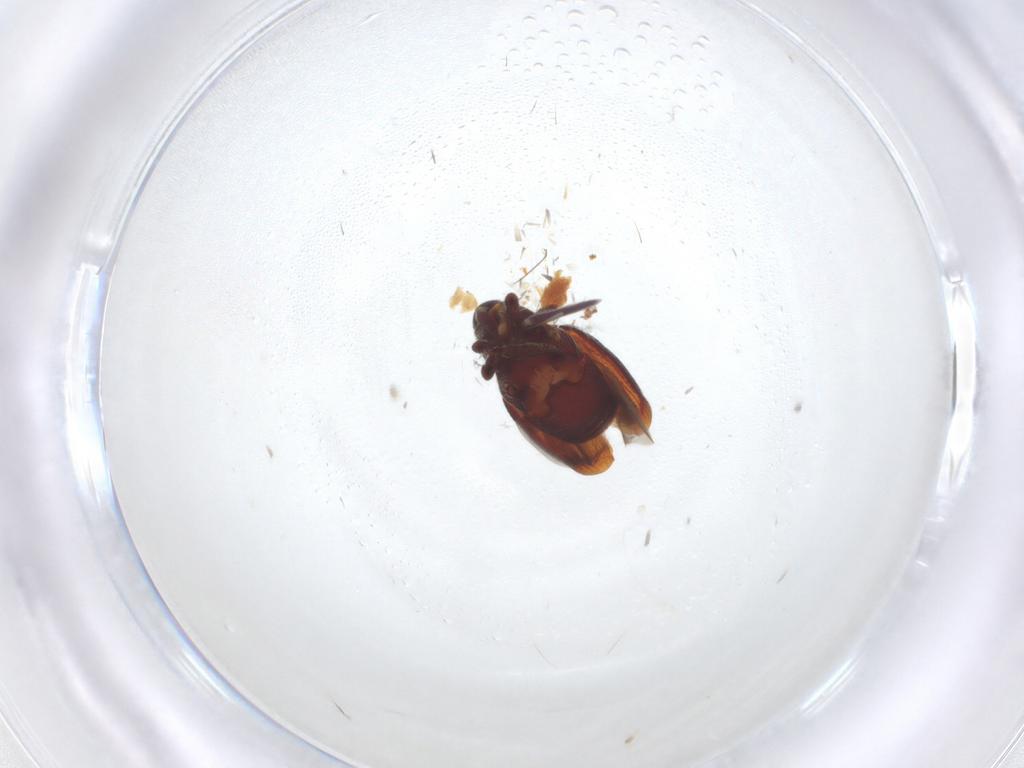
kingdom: Animalia
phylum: Arthropoda
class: Insecta
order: Coleoptera
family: Curculionidae
